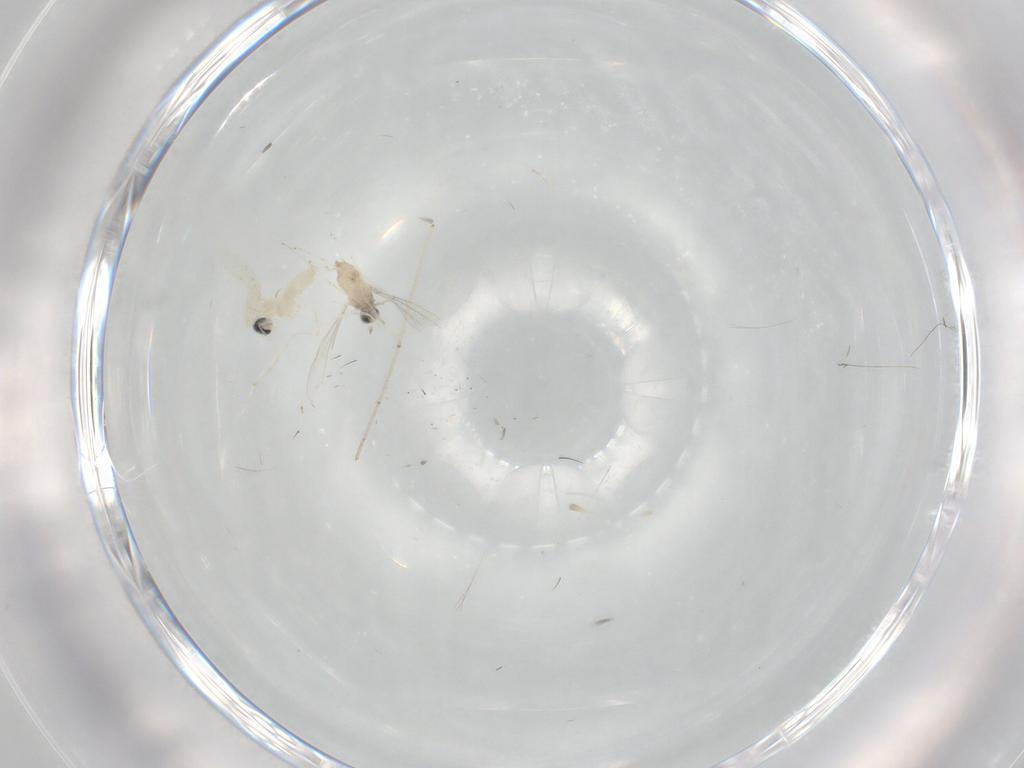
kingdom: Animalia
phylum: Arthropoda
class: Insecta
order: Diptera
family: Cecidomyiidae
